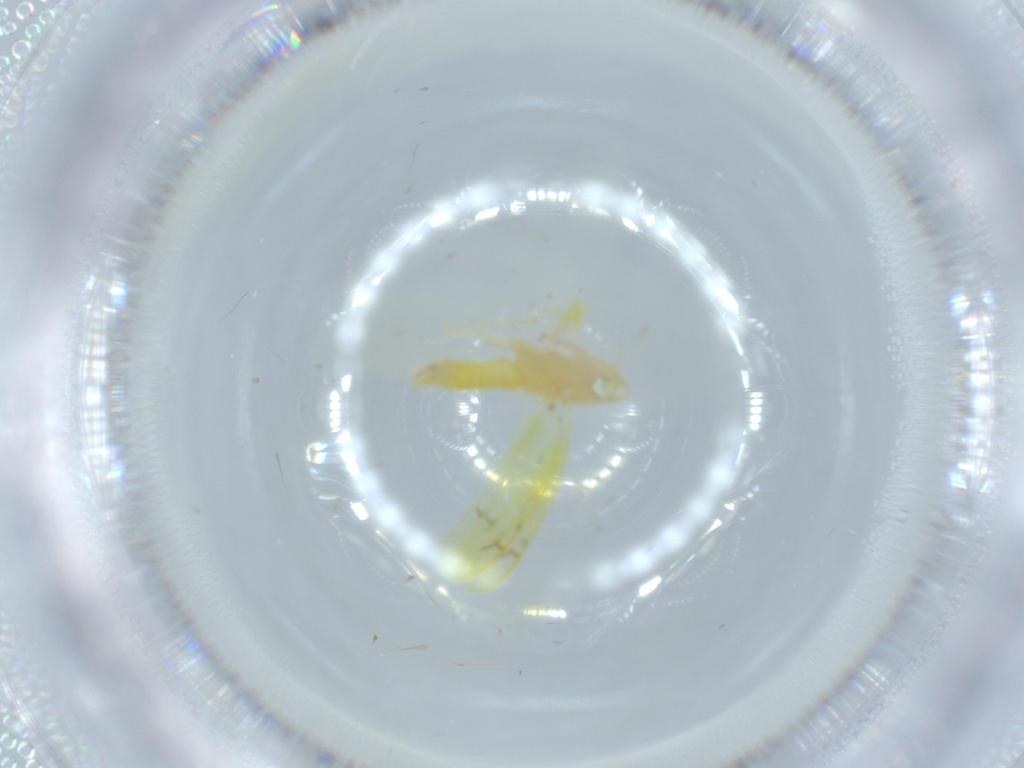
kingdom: Animalia
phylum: Arthropoda
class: Insecta
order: Hemiptera
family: Cicadellidae
